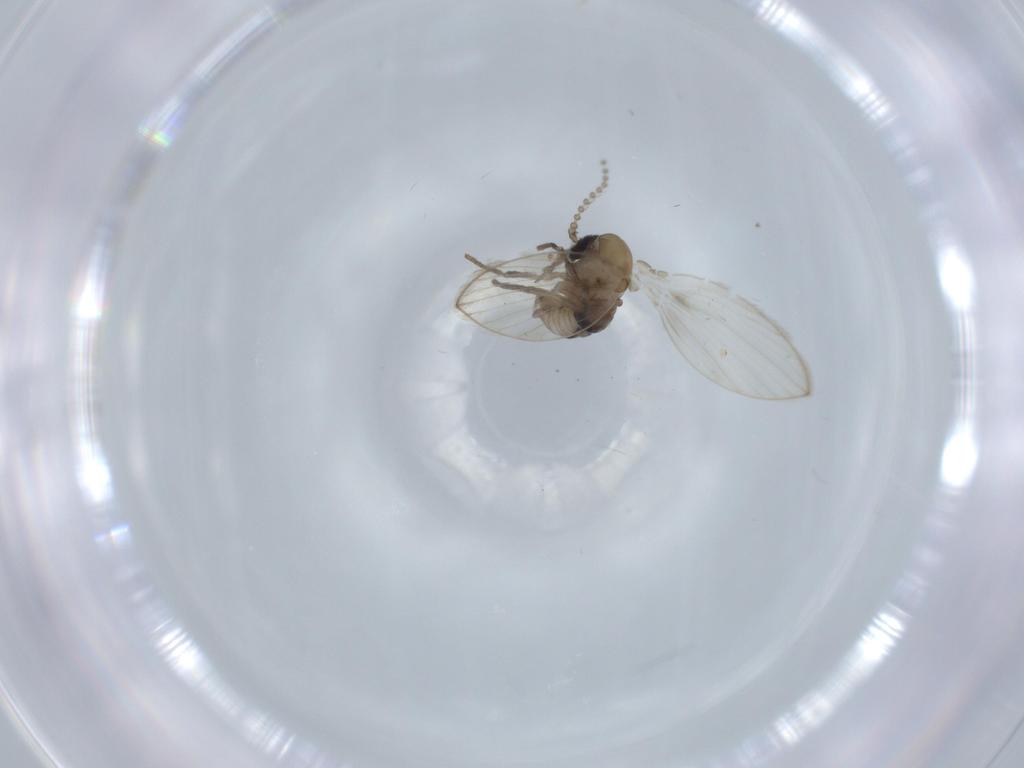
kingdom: Animalia
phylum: Arthropoda
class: Insecta
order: Diptera
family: Psychodidae
